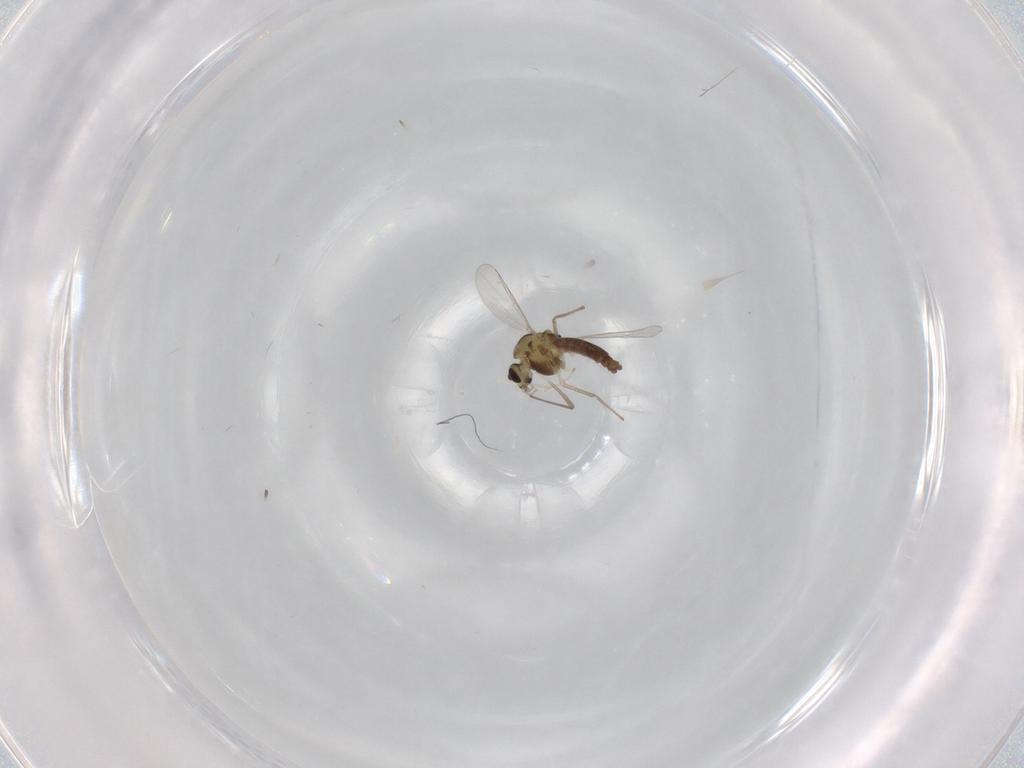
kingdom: Animalia
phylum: Arthropoda
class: Insecta
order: Diptera
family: Chironomidae
